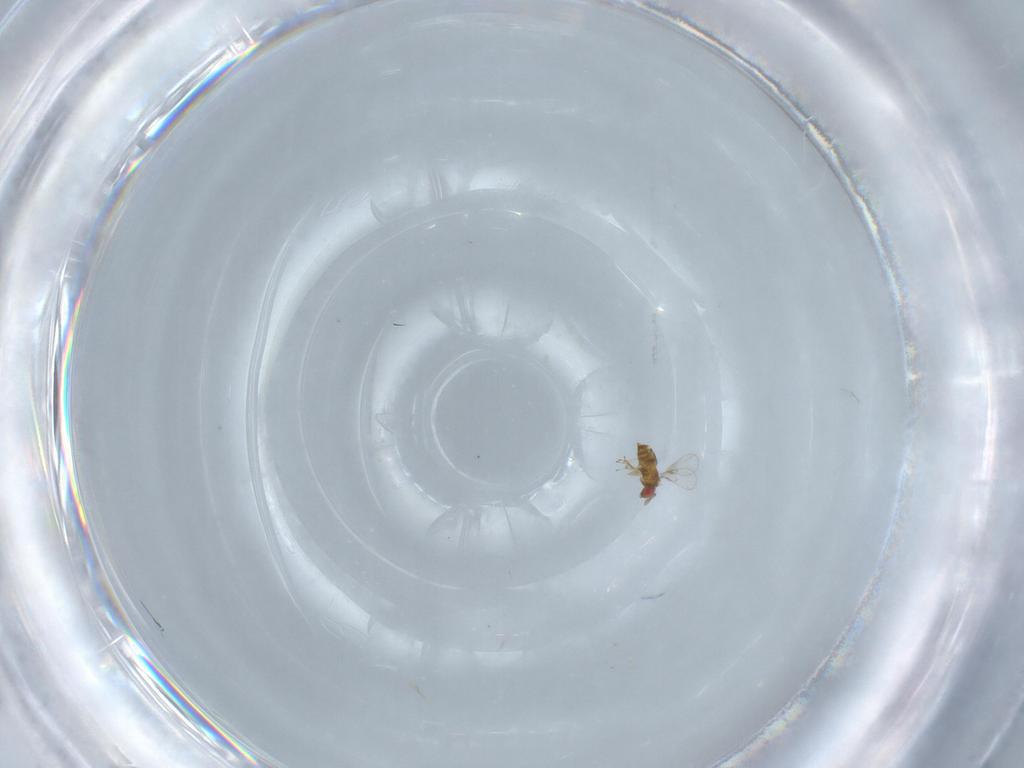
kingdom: Animalia
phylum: Arthropoda
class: Insecta
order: Hymenoptera
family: Trichogrammatidae
